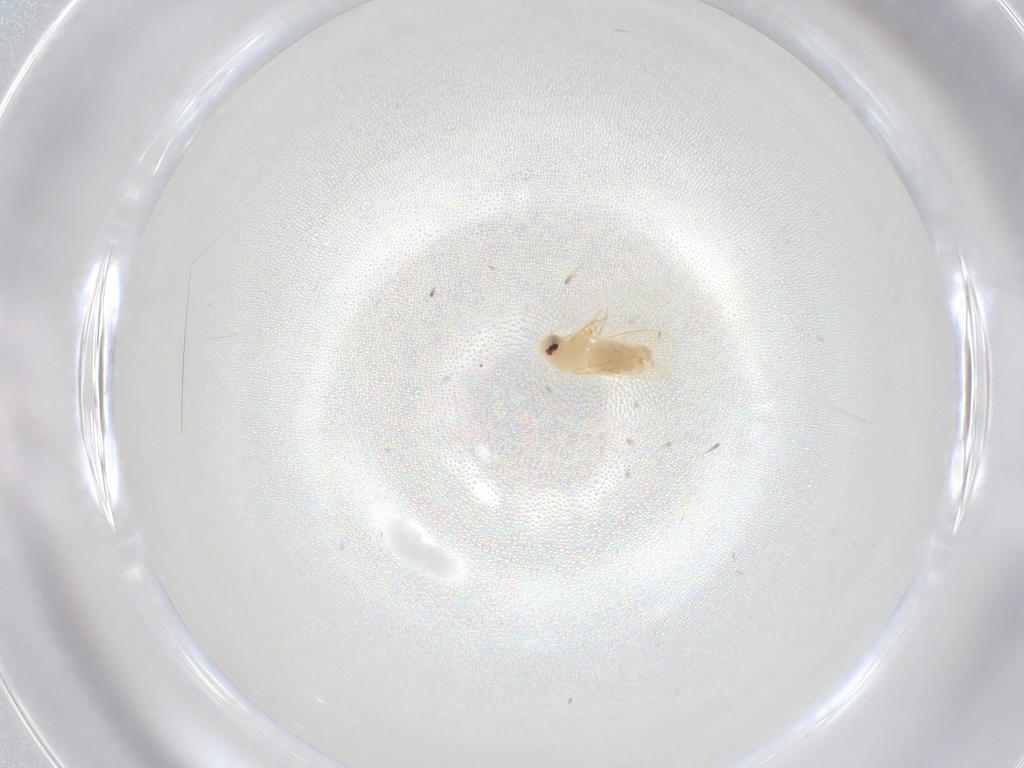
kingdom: Animalia
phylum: Arthropoda
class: Insecta
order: Hemiptera
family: Aleyrodidae
